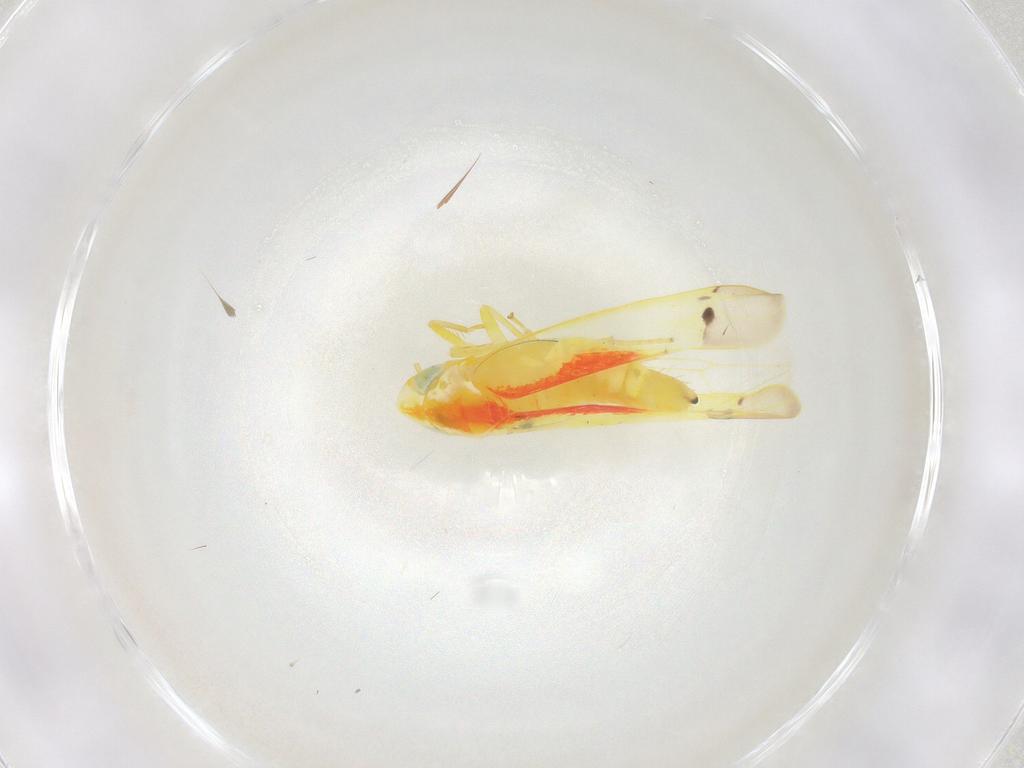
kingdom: Animalia
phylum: Arthropoda
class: Insecta
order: Hemiptera
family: Cicadellidae
